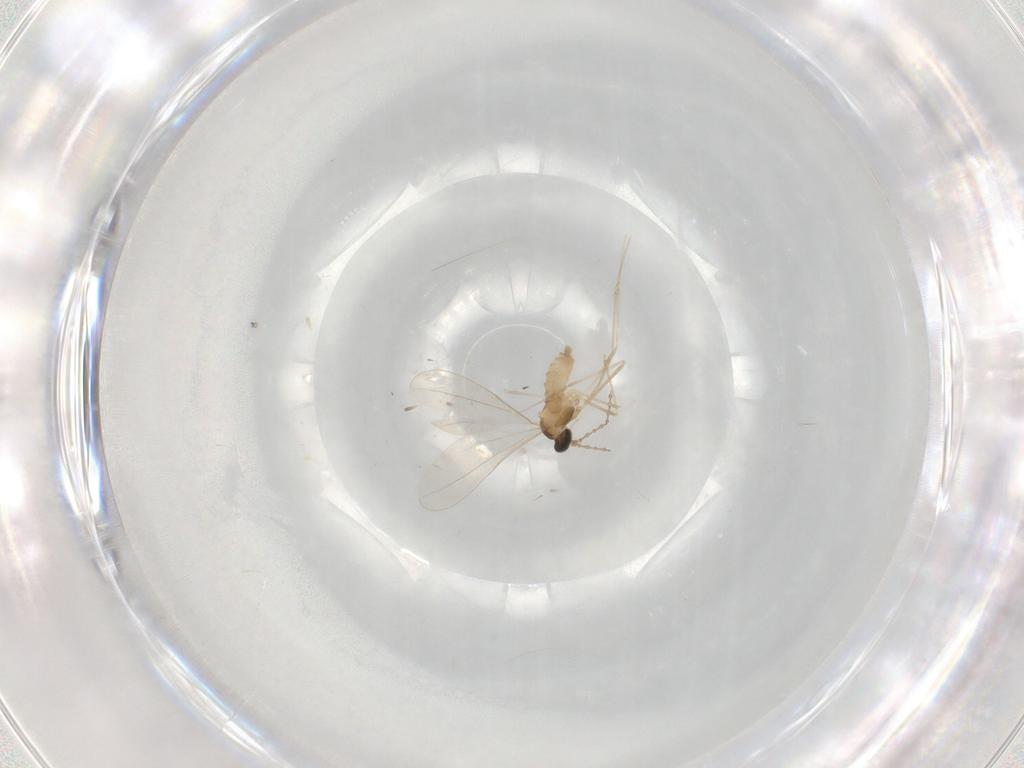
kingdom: Animalia
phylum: Arthropoda
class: Insecta
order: Diptera
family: Cecidomyiidae
